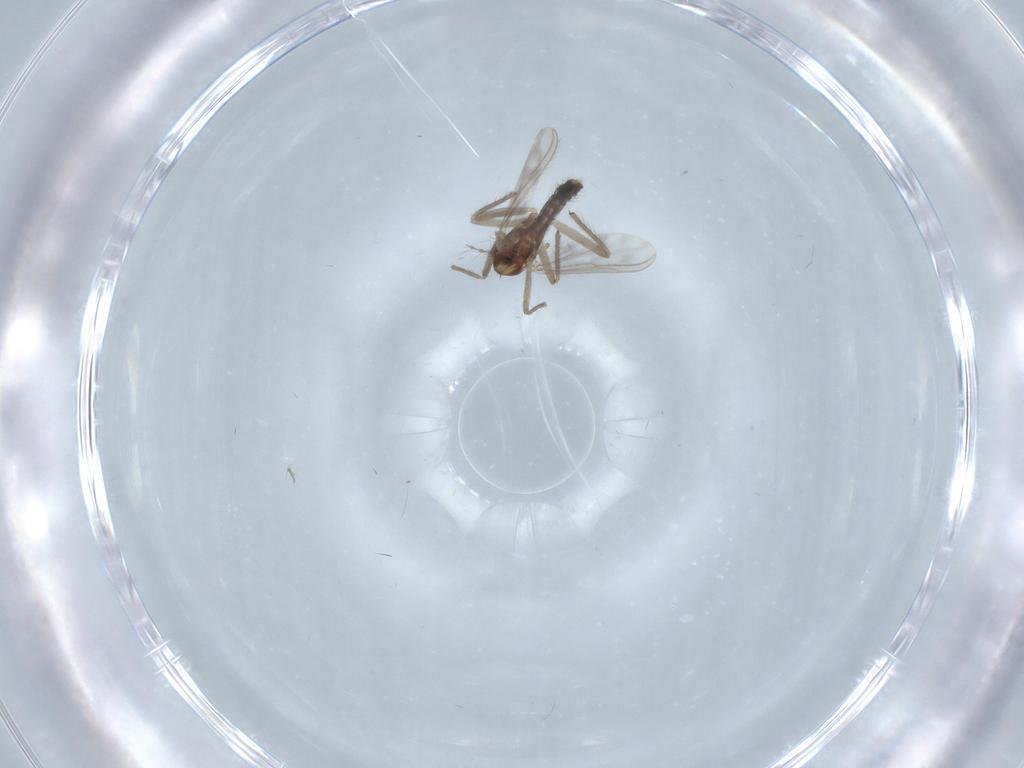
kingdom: Animalia
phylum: Arthropoda
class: Insecta
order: Diptera
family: Chironomidae
